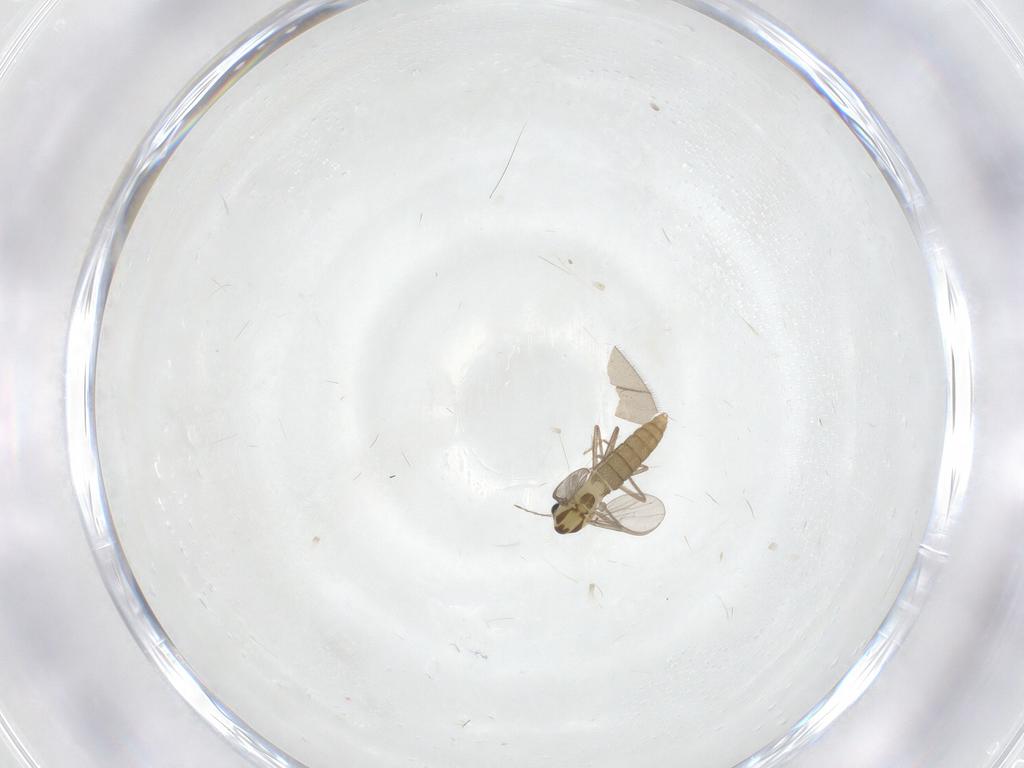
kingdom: Animalia
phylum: Arthropoda
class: Insecta
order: Diptera
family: Chironomidae
